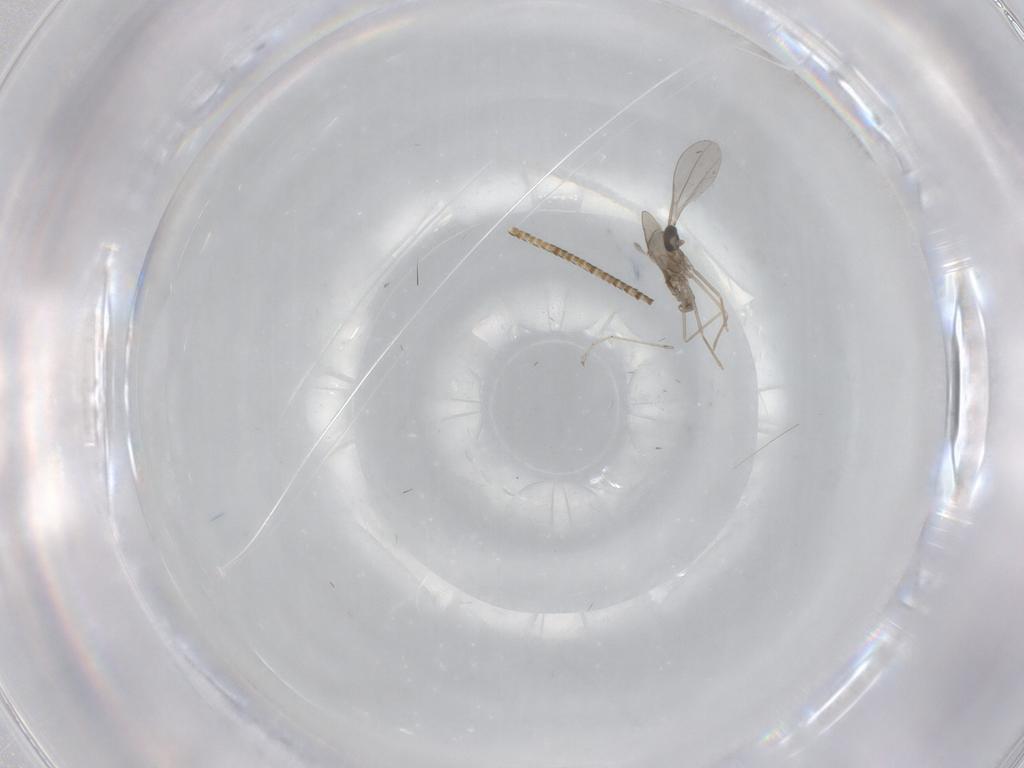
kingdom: Animalia
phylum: Arthropoda
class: Insecta
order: Diptera
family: Cecidomyiidae
